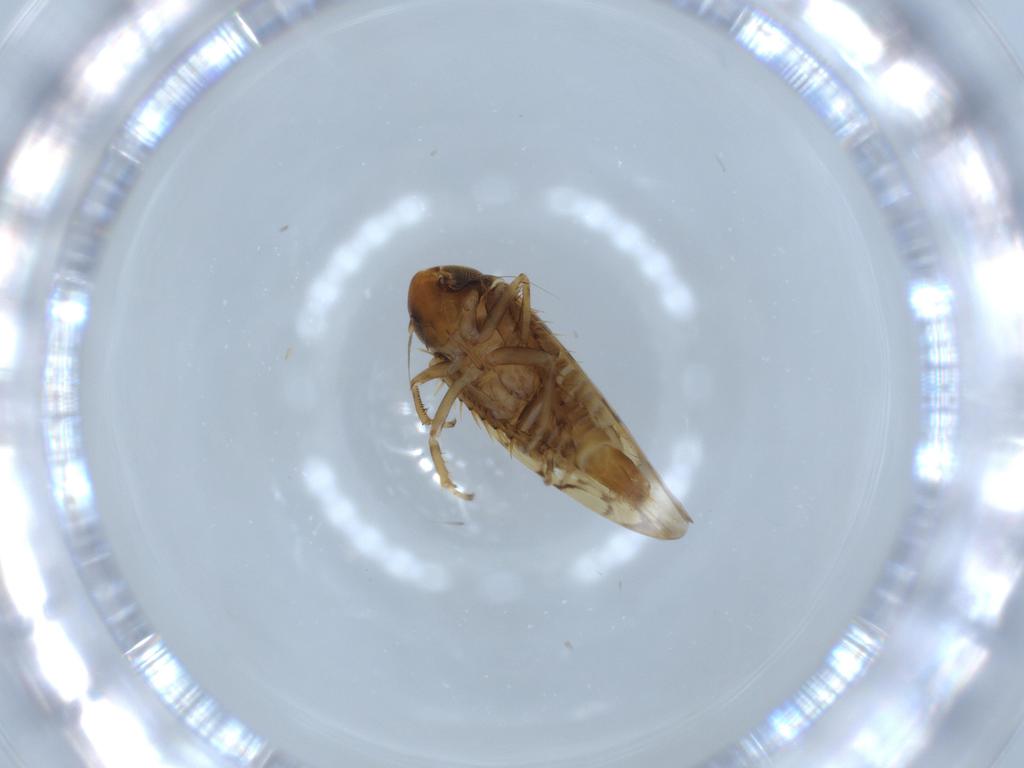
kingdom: Animalia
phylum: Arthropoda
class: Insecta
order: Hemiptera
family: Cicadellidae
